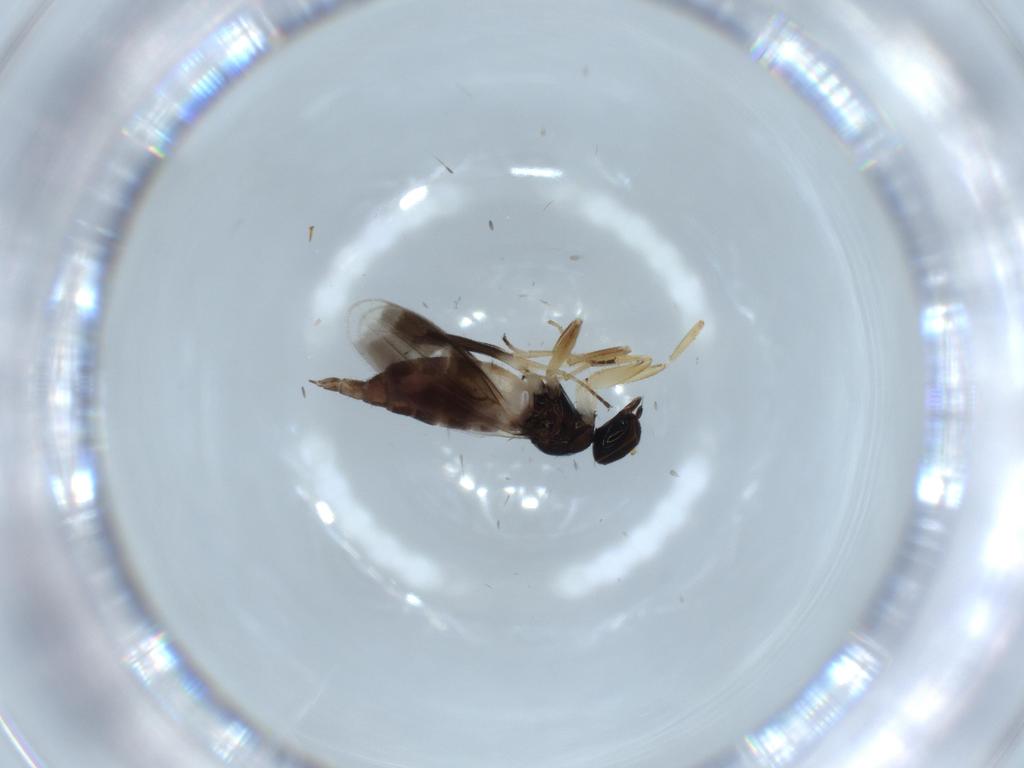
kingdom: Animalia
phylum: Arthropoda
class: Insecta
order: Diptera
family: Hybotidae
